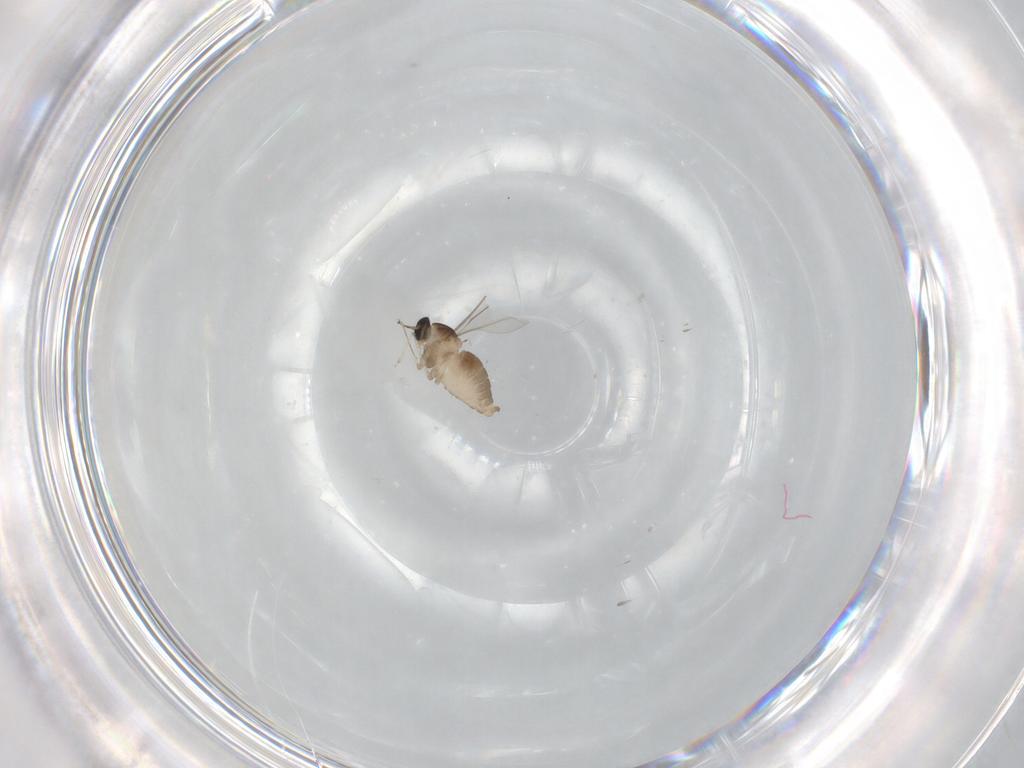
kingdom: Animalia
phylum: Arthropoda
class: Insecta
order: Diptera
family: Cecidomyiidae
